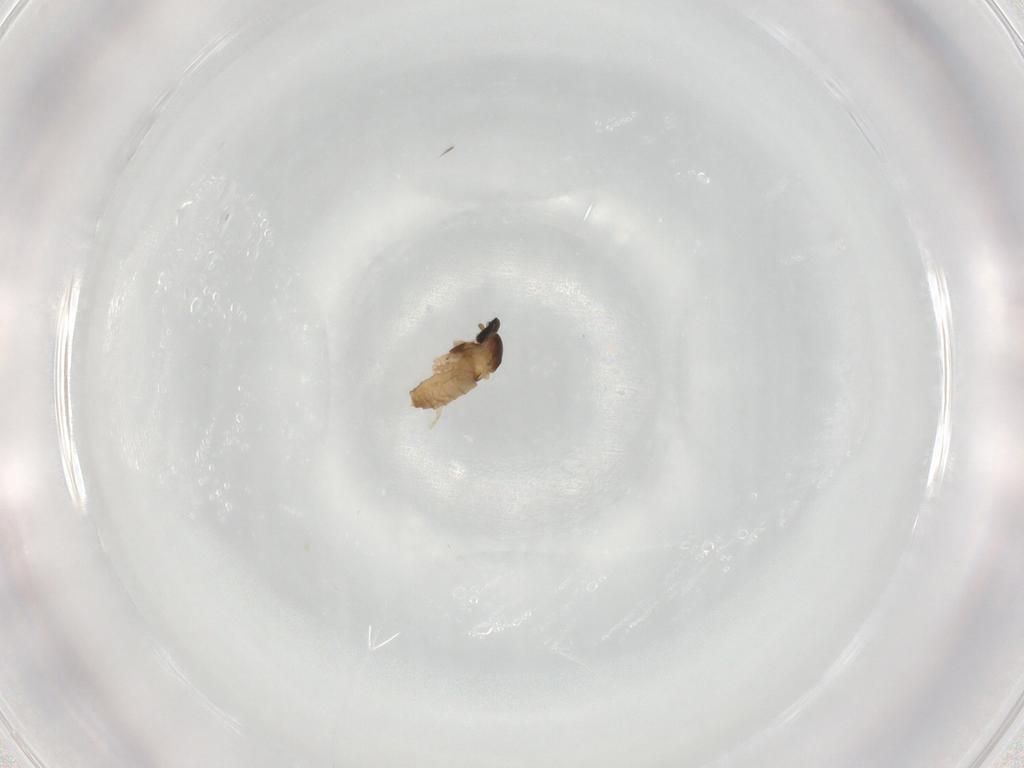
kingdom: Animalia
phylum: Arthropoda
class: Insecta
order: Diptera
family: Cecidomyiidae
